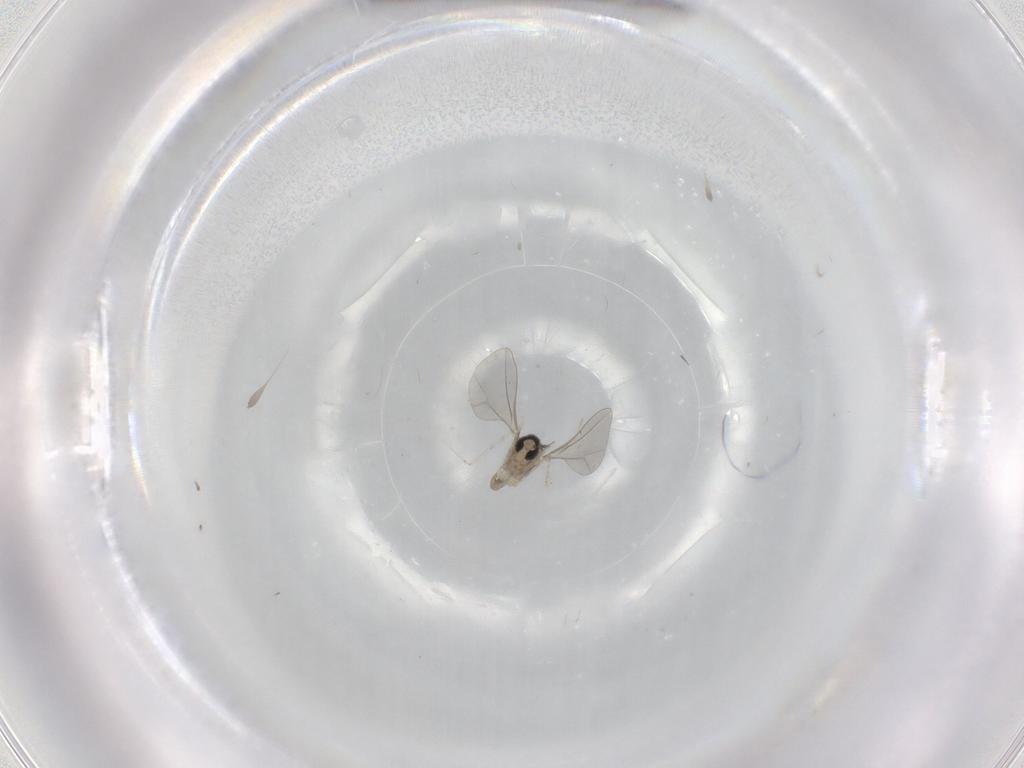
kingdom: Animalia
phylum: Arthropoda
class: Insecta
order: Diptera
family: Cecidomyiidae
